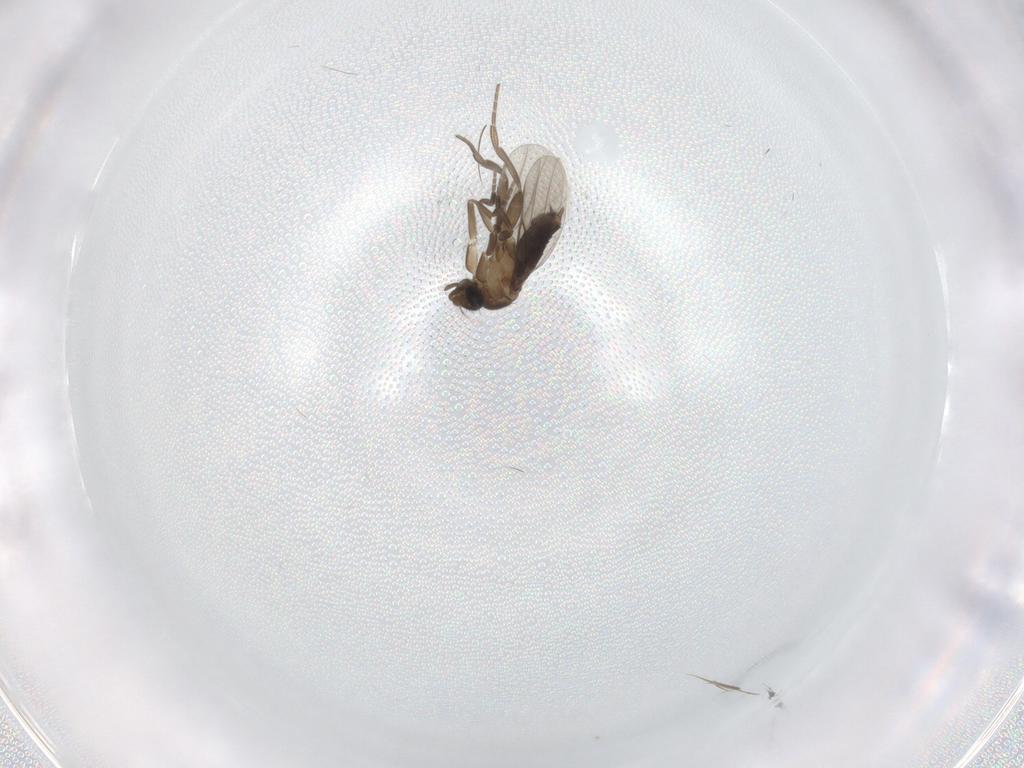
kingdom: Animalia
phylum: Arthropoda
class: Insecta
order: Diptera
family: Phoridae
